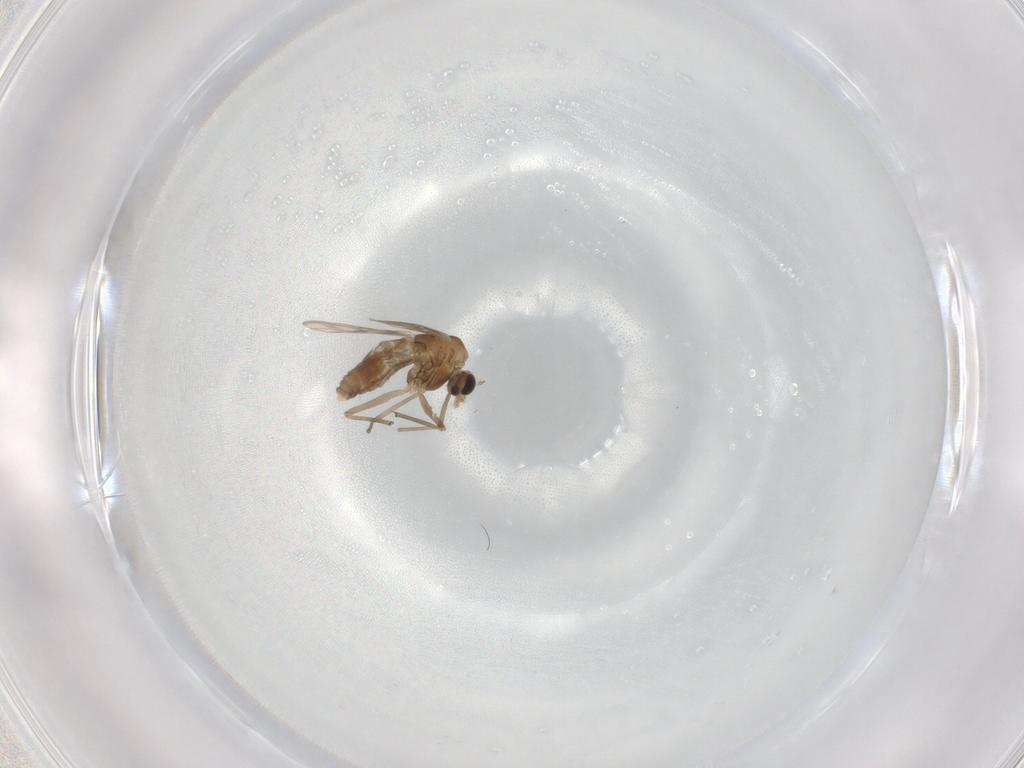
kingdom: Animalia
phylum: Arthropoda
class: Insecta
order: Diptera
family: Chironomidae
